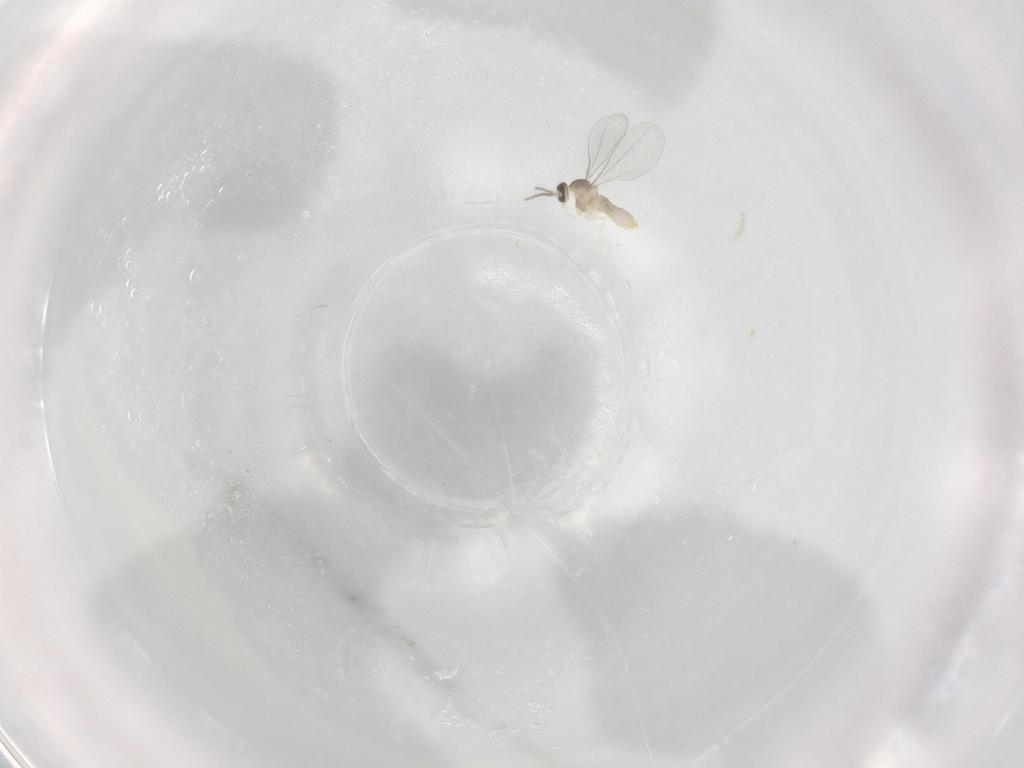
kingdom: Animalia
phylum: Arthropoda
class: Insecta
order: Diptera
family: Cecidomyiidae
